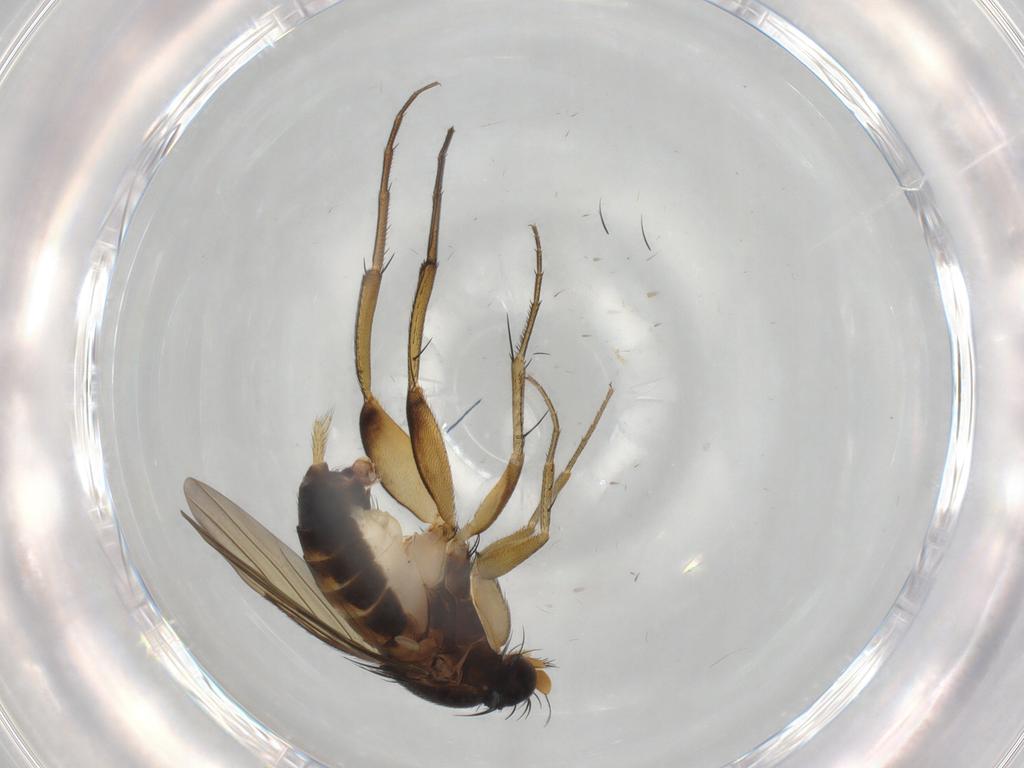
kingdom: Animalia
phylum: Arthropoda
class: Insecta
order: Diptera
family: Phoridae
